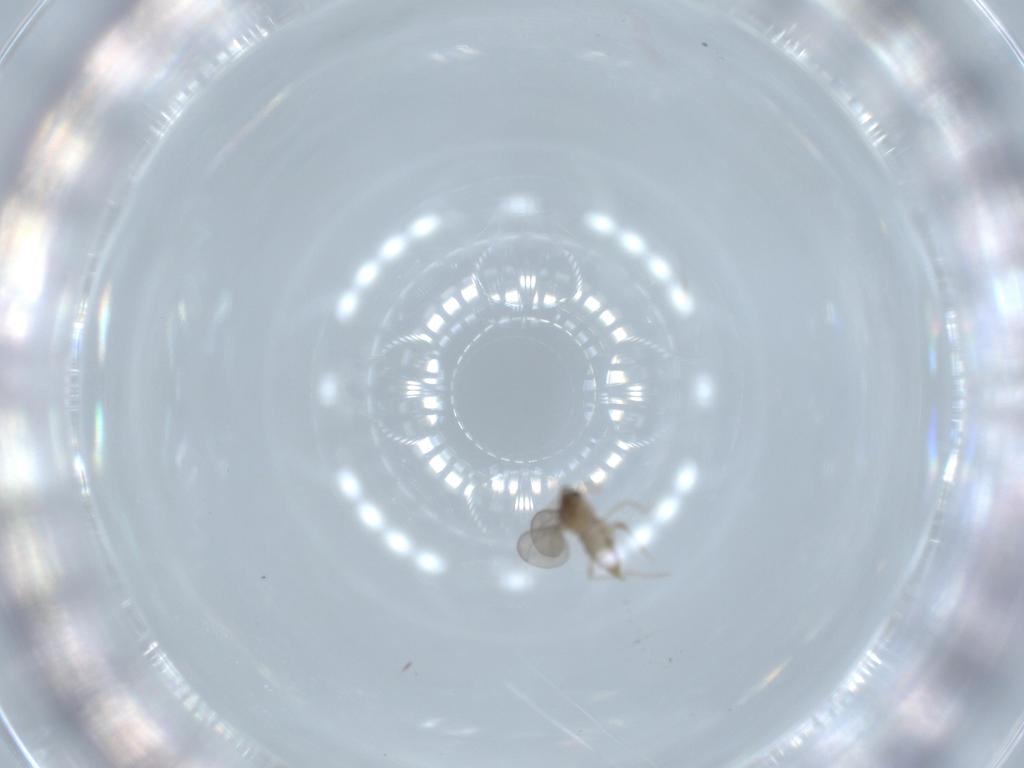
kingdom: Animalia
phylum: Arthropoda
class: Insecta
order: Diptera
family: Cecidomyiidae
